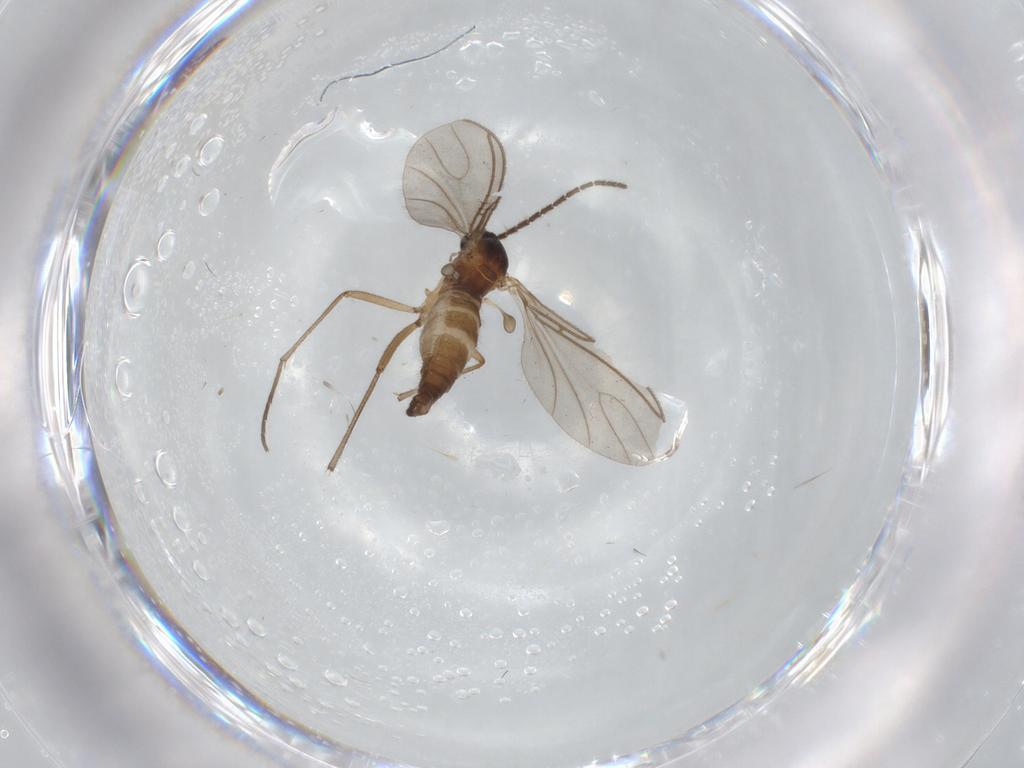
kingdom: Animalia
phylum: Arthropoda
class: Insecta
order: Diptera
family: Sciaridae
